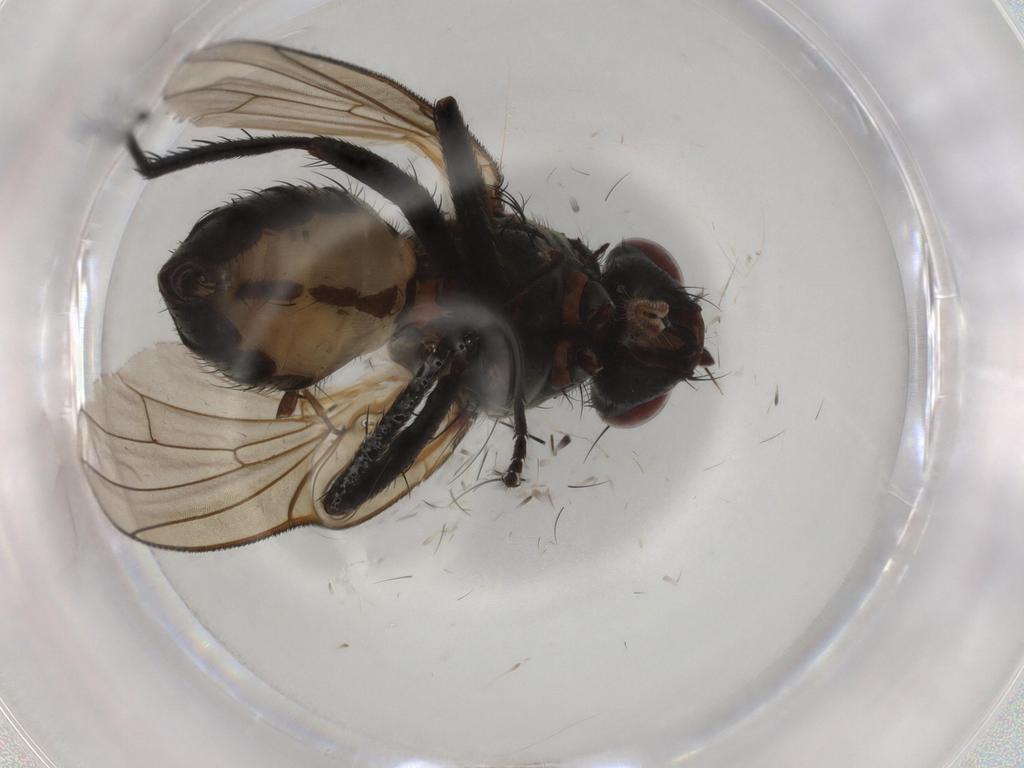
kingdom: Animalia
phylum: Arthropoda
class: Insecta
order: Diptera
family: Anthomyiidae
